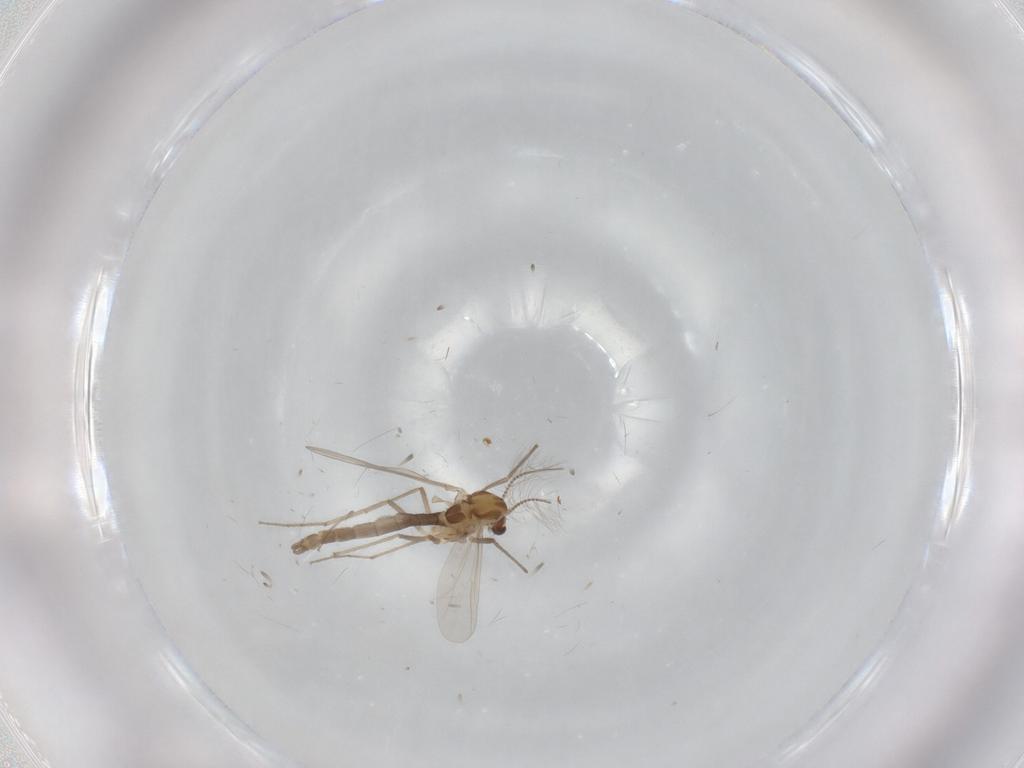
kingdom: Animalia
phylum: Arthropoda
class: Insecta
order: Diptera
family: Chironomidae
